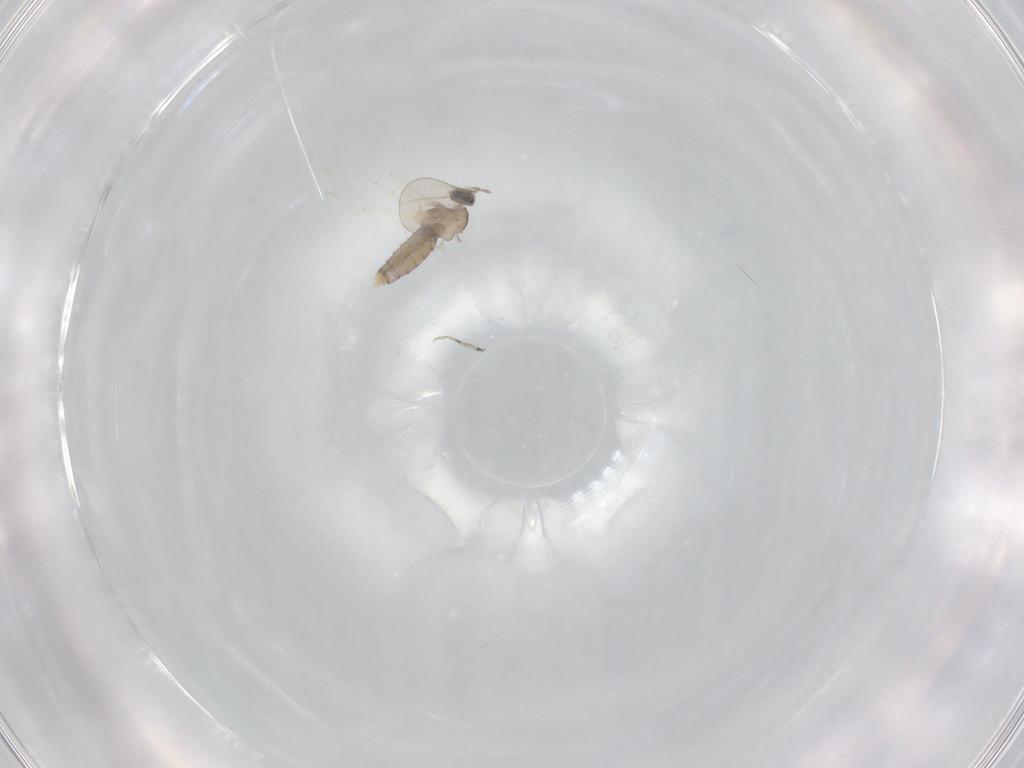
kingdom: Animalia
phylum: Arthropoda
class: Insecta
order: Diptera
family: Cecidomyiidae
